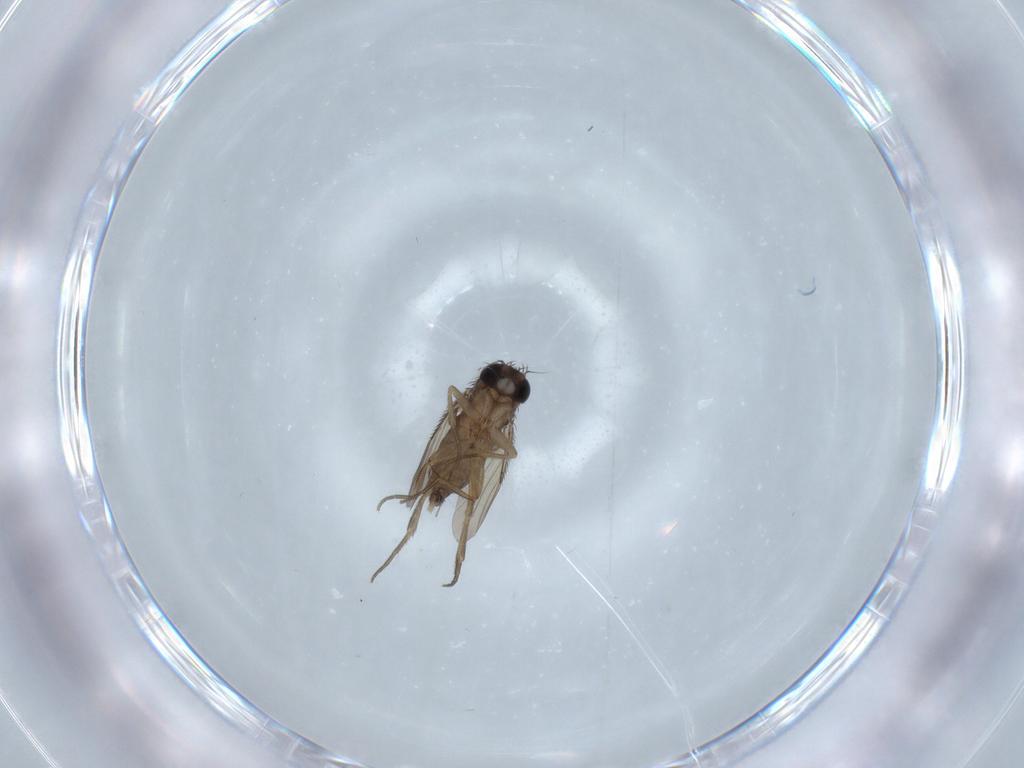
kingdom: Animalia
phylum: Arthropoda
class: Insecta
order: Diptera
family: Phoridae
